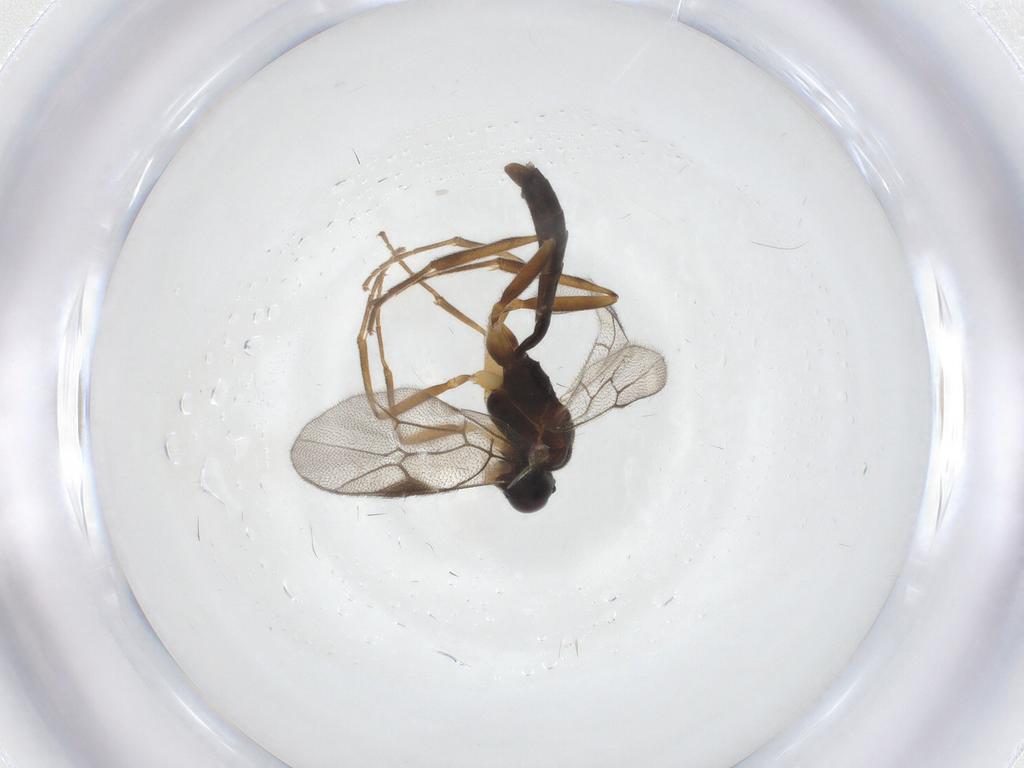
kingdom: Animalia
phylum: Arthropoda
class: Insecta
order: Hymenoptera
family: Ichneumonidae
